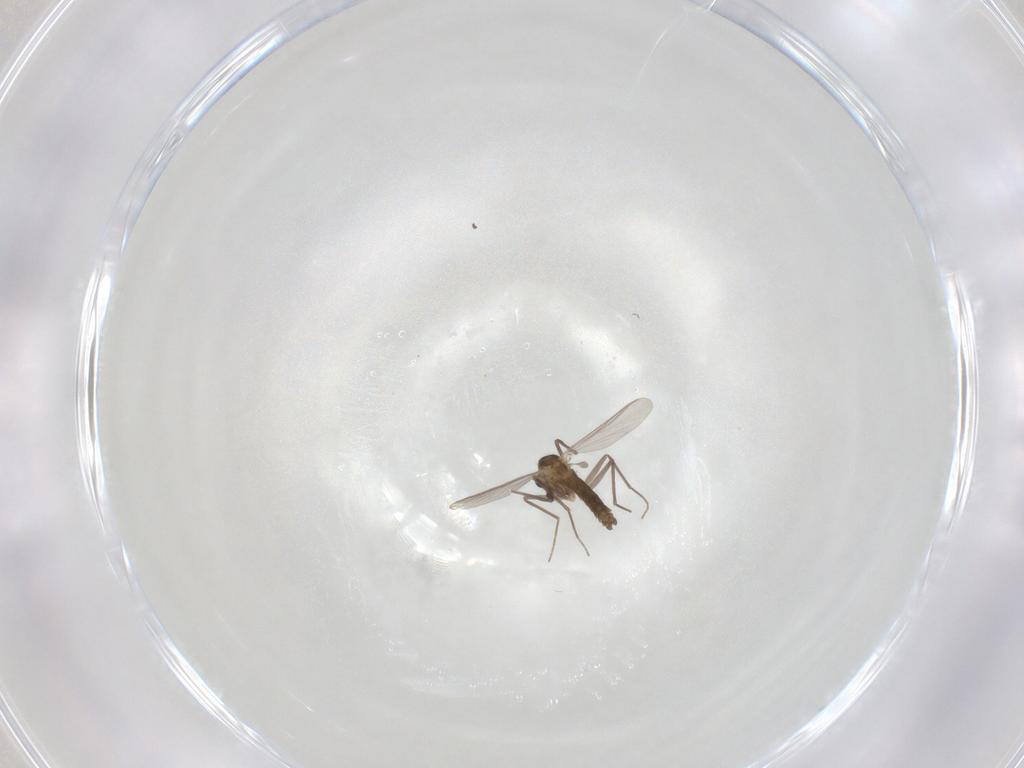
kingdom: Animalia
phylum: Arthropoda
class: Insecta
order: Diptera
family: Chironomidae
